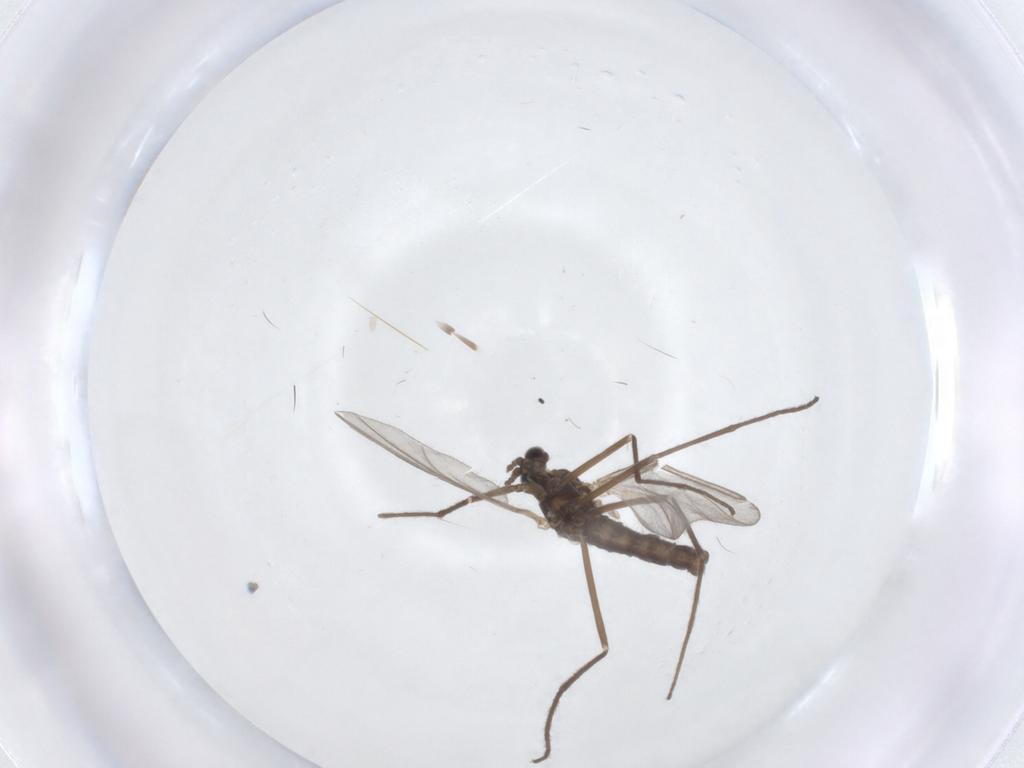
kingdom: Animalia
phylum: Arthropoda
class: Insecta
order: Diptera
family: Cecidomyiidae
